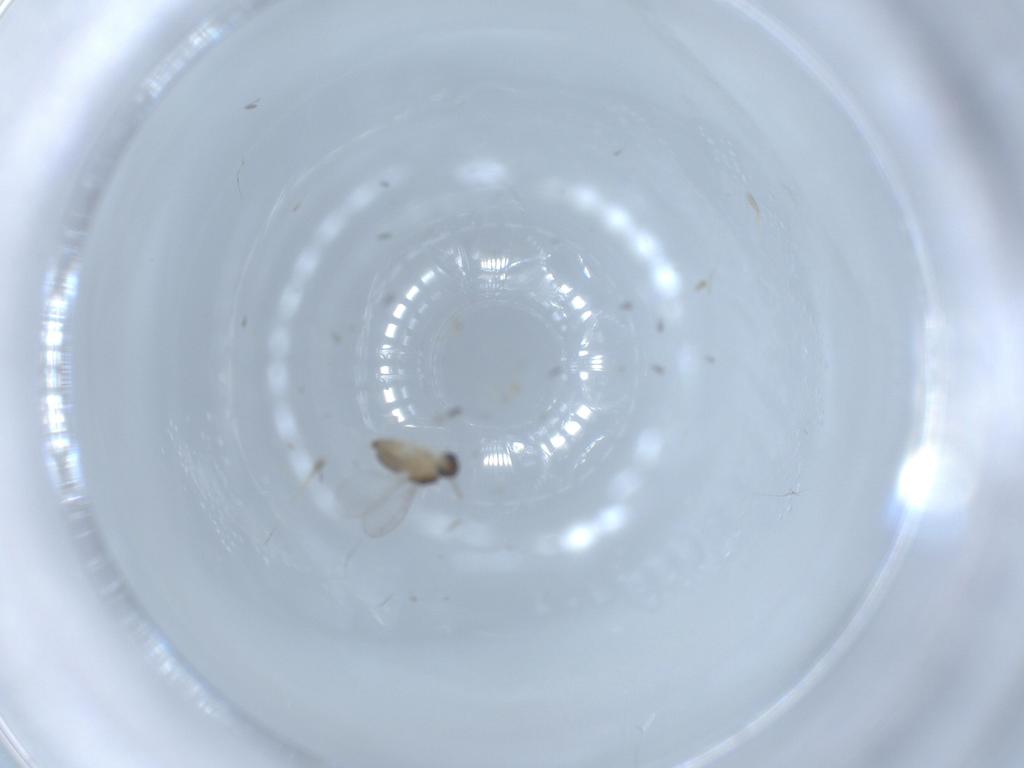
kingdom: Animalia
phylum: Arthropoda
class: Insecta
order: Diptera
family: Cecidomyiidae
